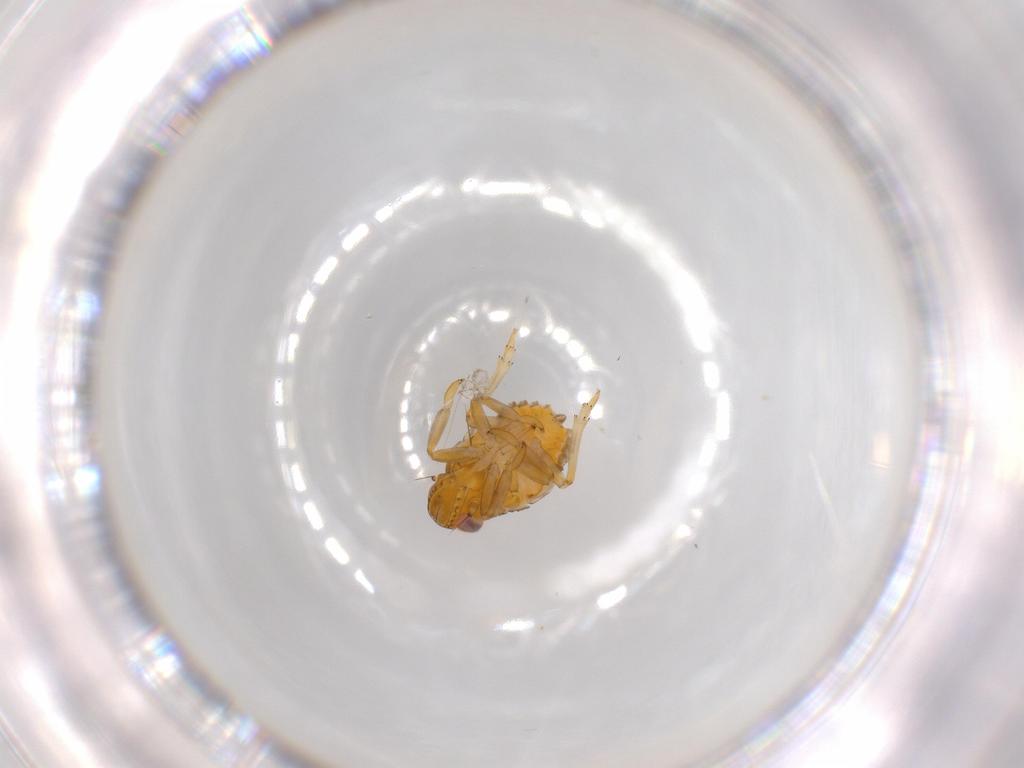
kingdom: Animalia
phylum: Arthropoda
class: Insecta
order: Hemiptera
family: Issidae
